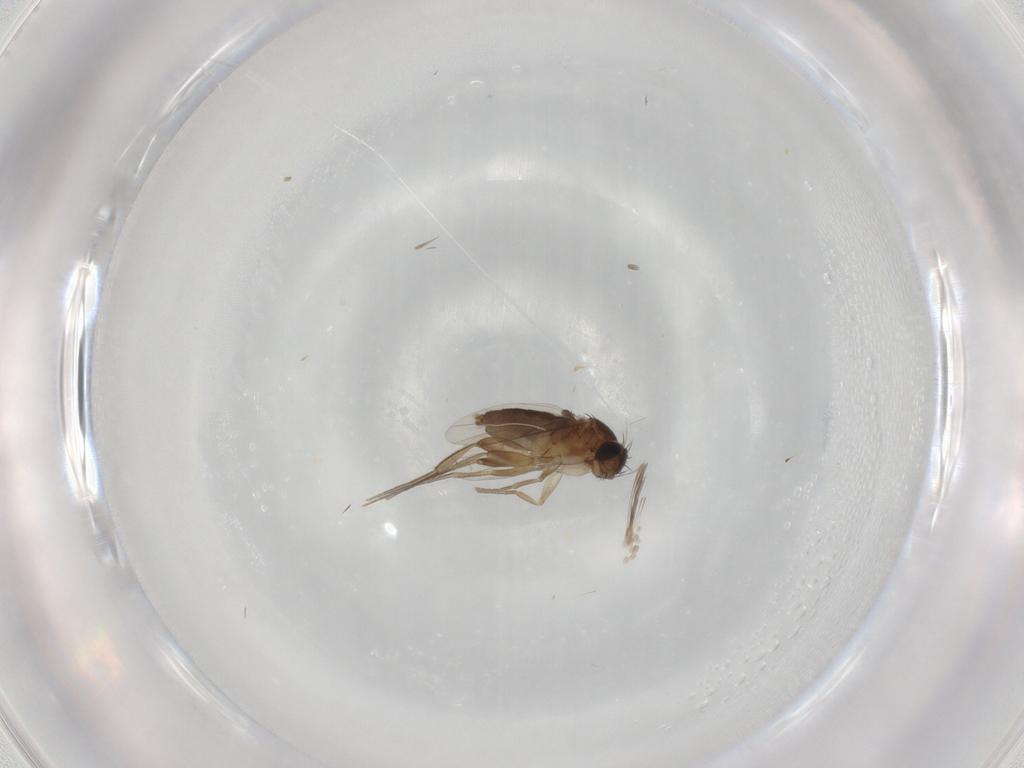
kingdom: Animalia
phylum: Arthropoda
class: Insecta
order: Diptera
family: Phoridae
